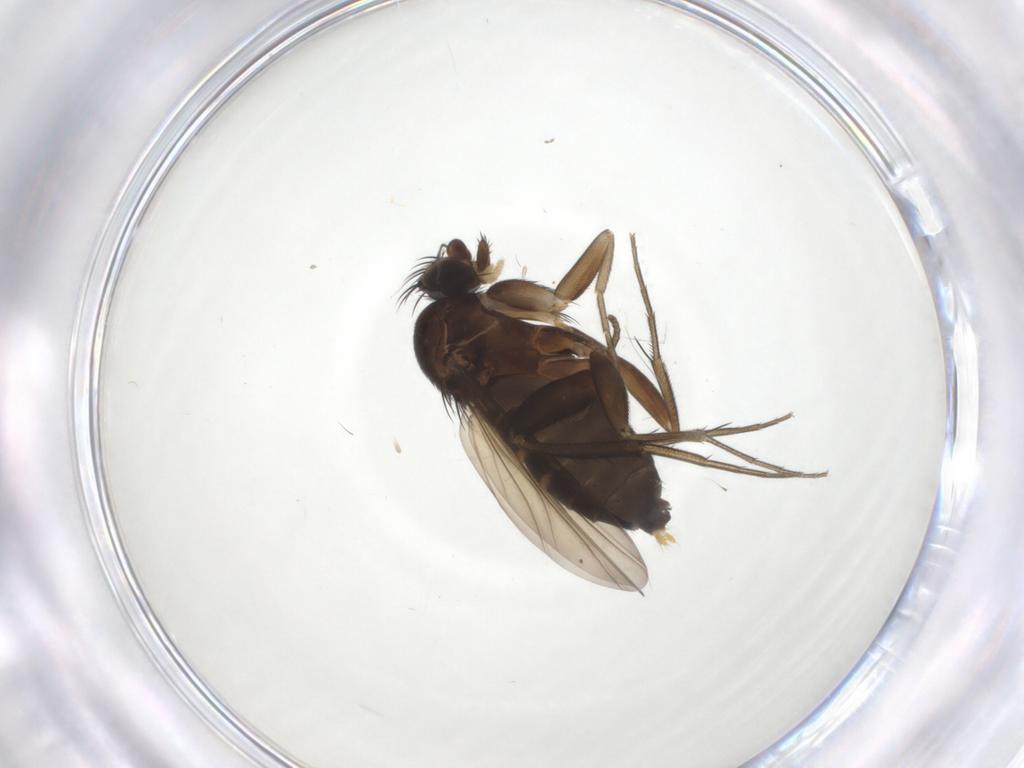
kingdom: Animalia
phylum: Arthropoda
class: Insecta
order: Diptera
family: Phoridae
